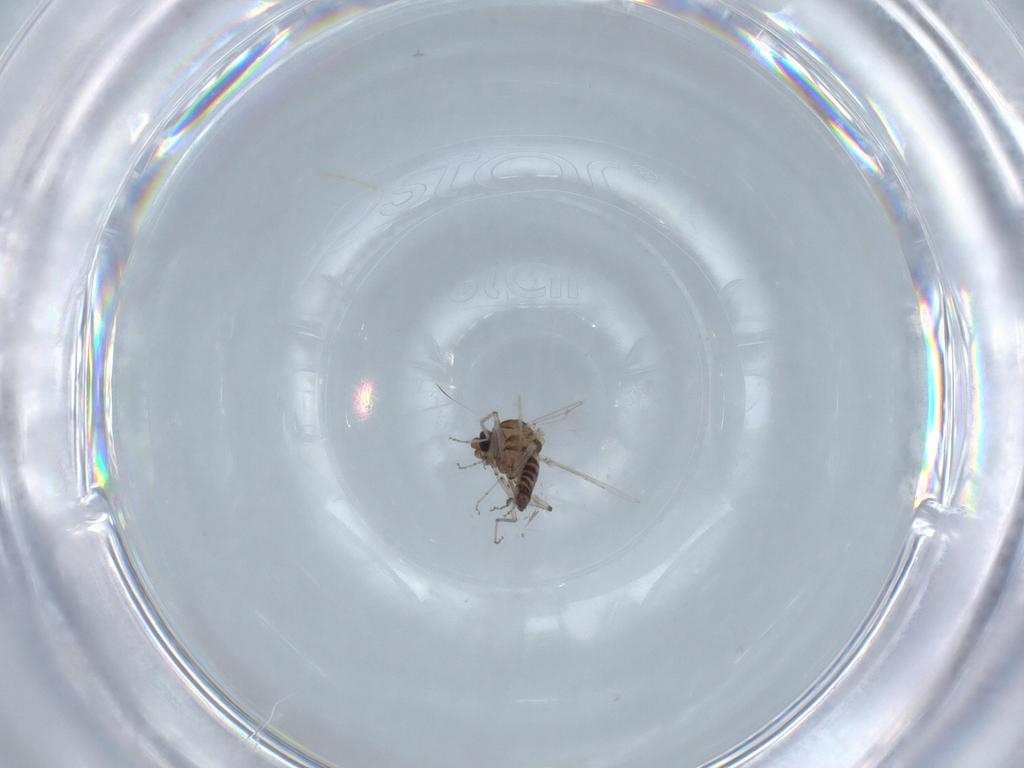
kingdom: Animalia
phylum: Arthropoda
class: Insecta
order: Diptera
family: Ceratopogonidae
